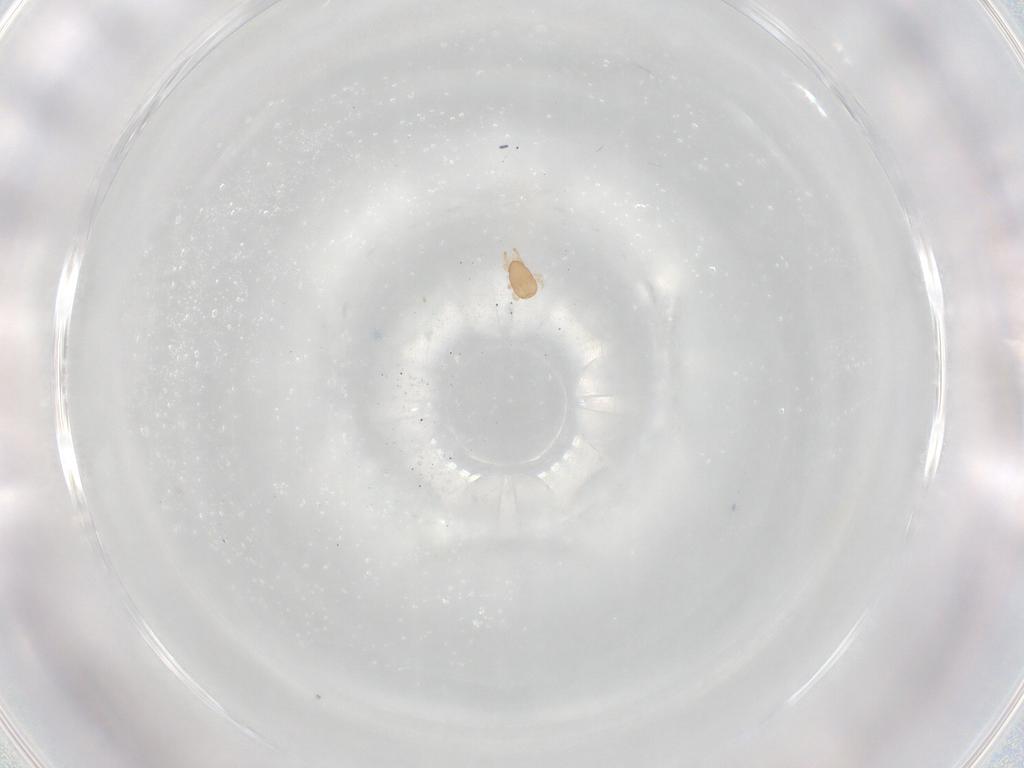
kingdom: Animalia
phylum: Arthropoda
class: Arachnida
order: Mesostigmata
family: Ascidae
